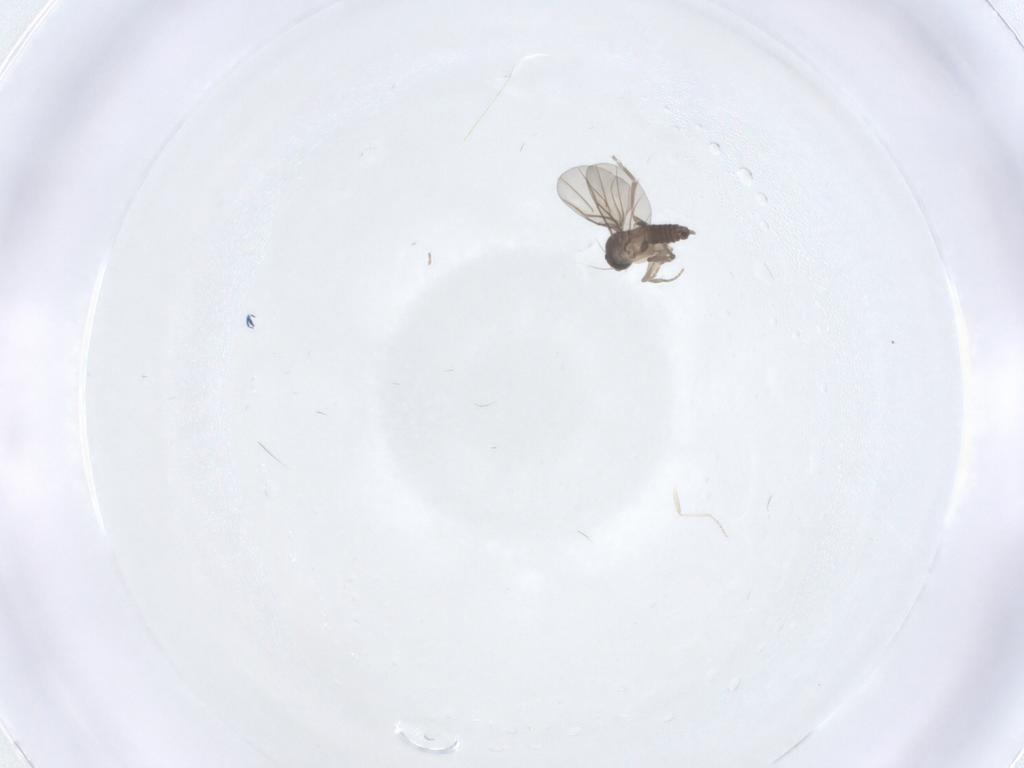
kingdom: Animalia
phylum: Arthropoda
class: Insecta
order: Diptera
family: Phoridae
